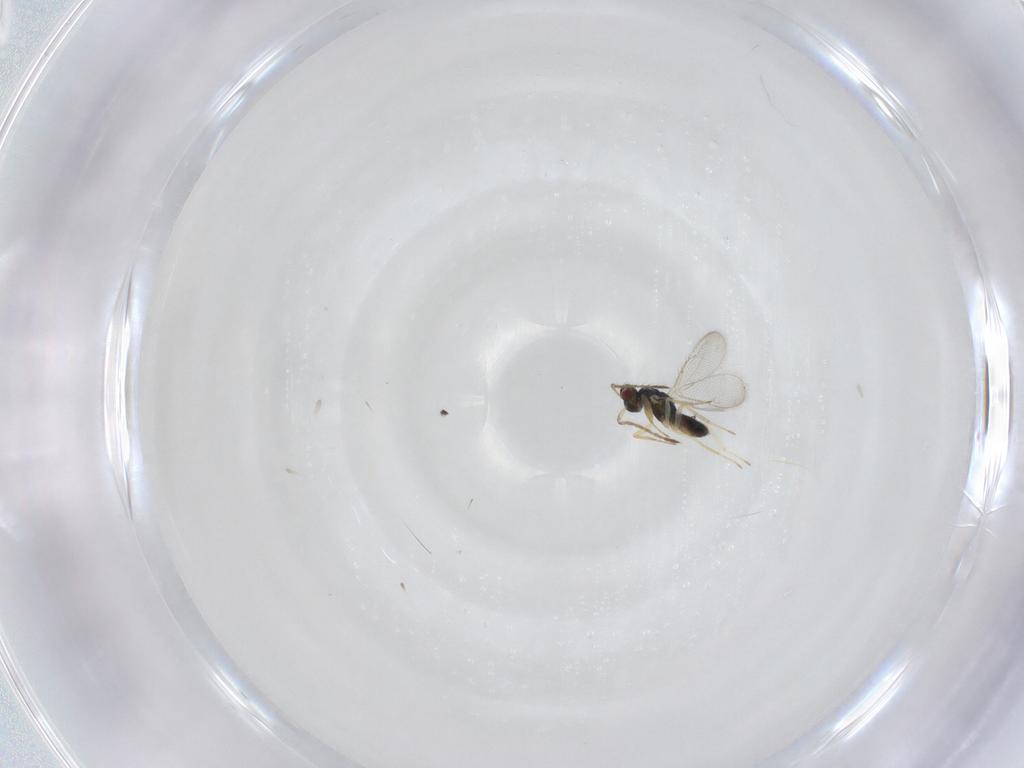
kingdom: Animalia
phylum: Arthropoda
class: Insecta
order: Hymenoptera
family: Eulophidae
